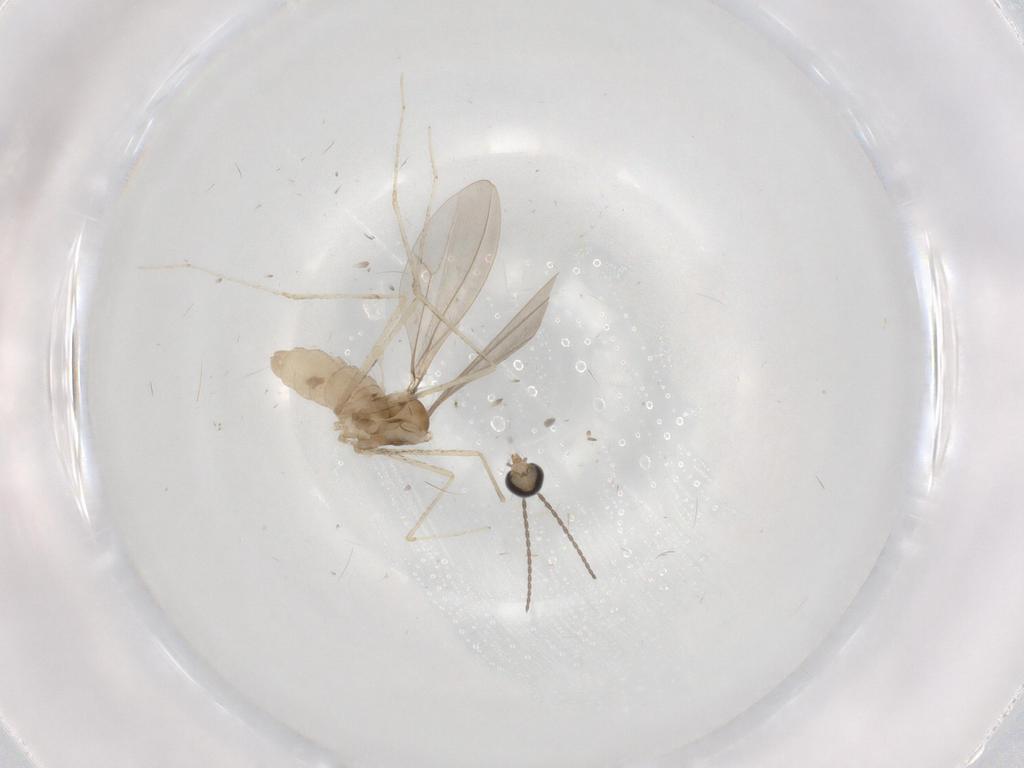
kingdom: Animalia
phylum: Arthropoda
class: Insecta
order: Diptera
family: Cecidomyiidae
